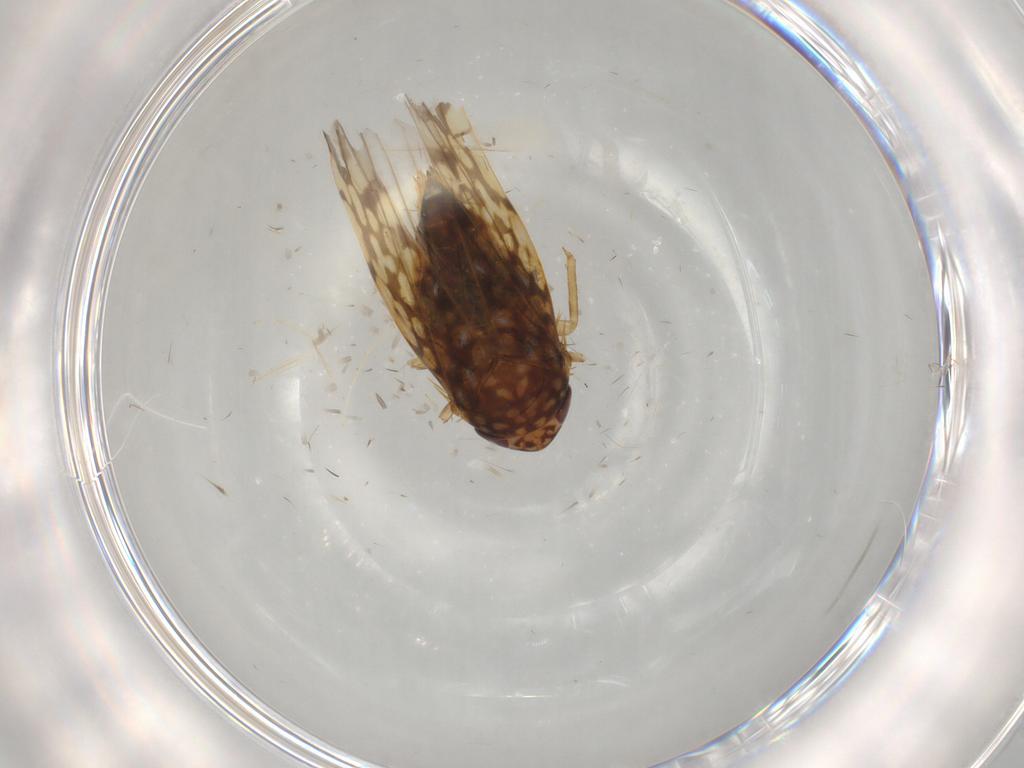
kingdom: Animalia
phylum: Arthropoda
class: Insecta
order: Hemiptera
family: Cicadellidae
